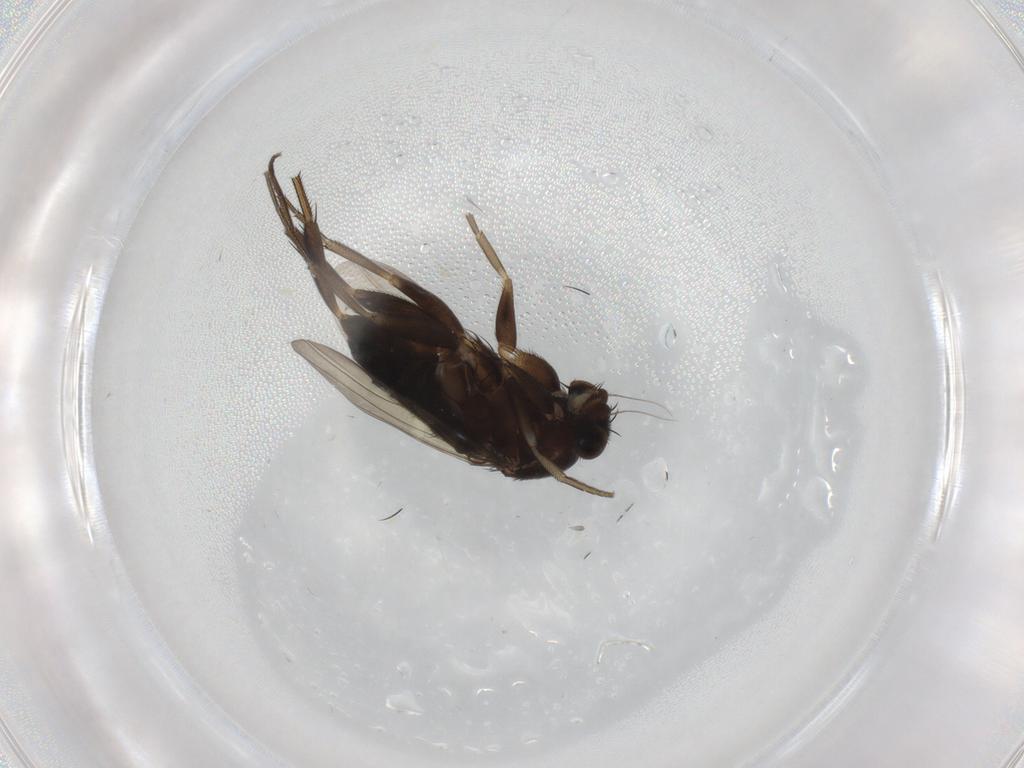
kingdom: Animalia
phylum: Arthropoda
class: Insecta
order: Diptera
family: Phoridae
